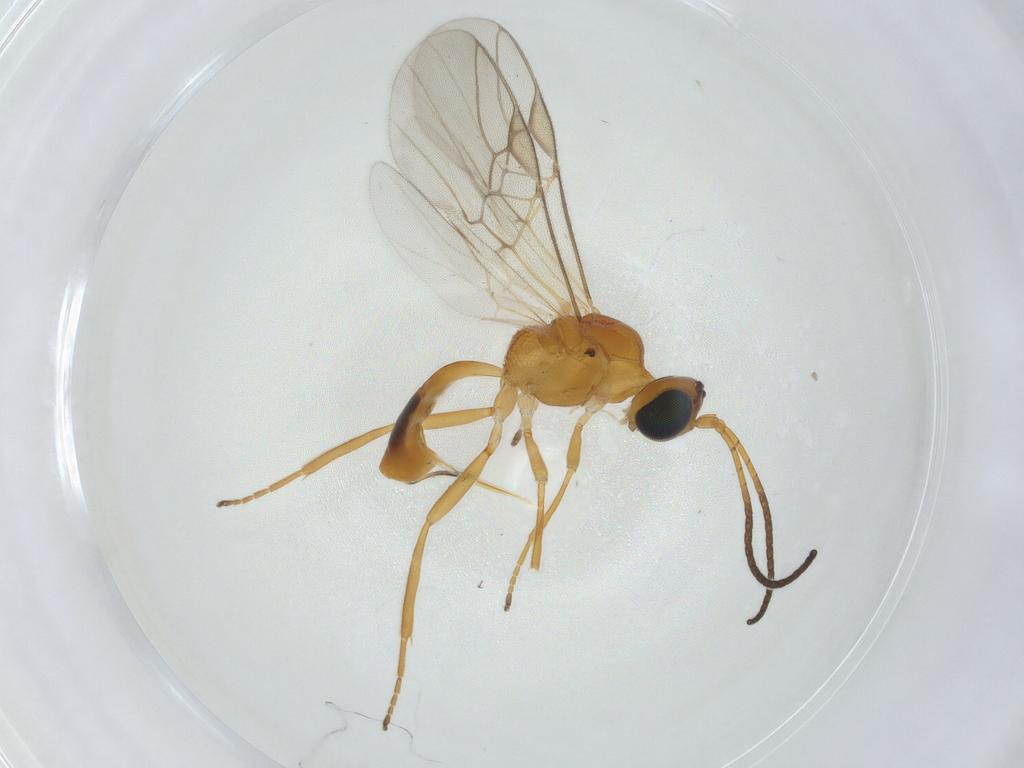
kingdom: Animalia
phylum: Arthropoda
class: Insecta
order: Hymenoptera
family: Braconidae
